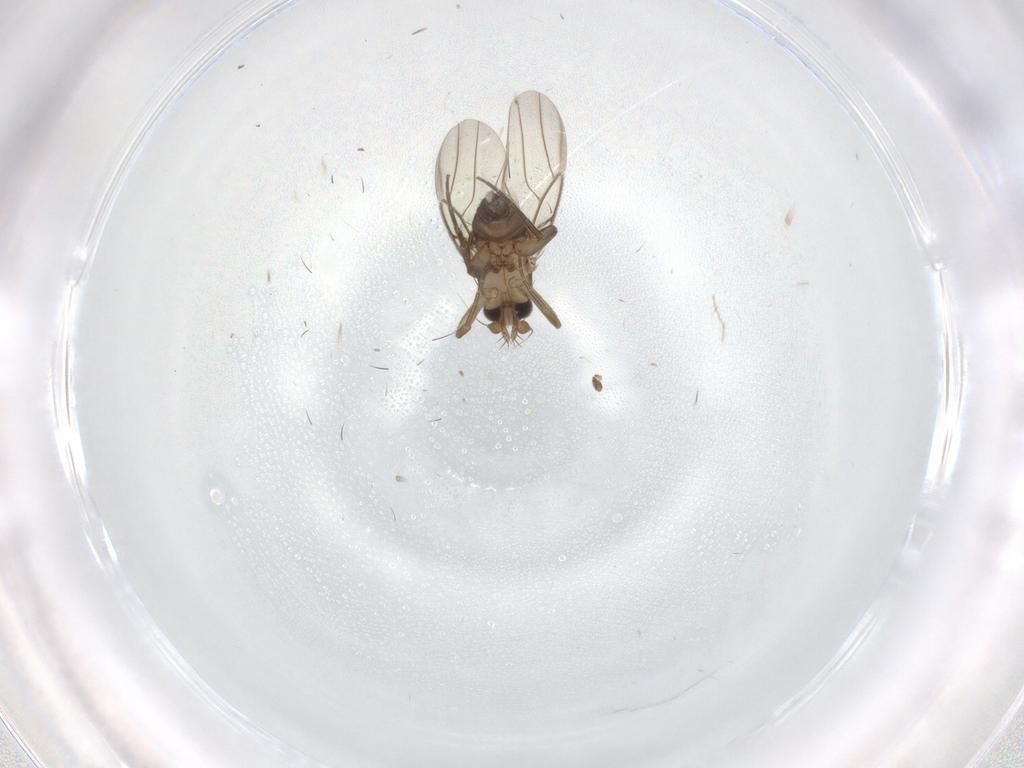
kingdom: Animalia
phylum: Arthropoda
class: Insecta
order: Diptera
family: Phoridae
